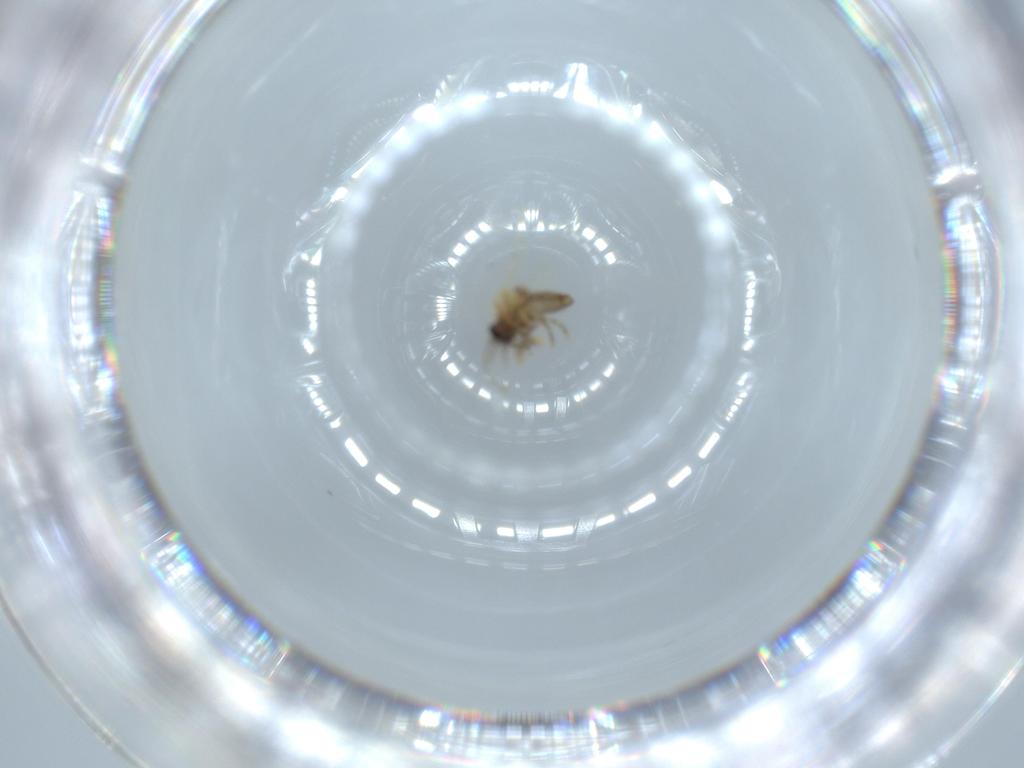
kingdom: Animalia
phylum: Arthropoda
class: Insecta
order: Diptera
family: Ceratopogonidae
